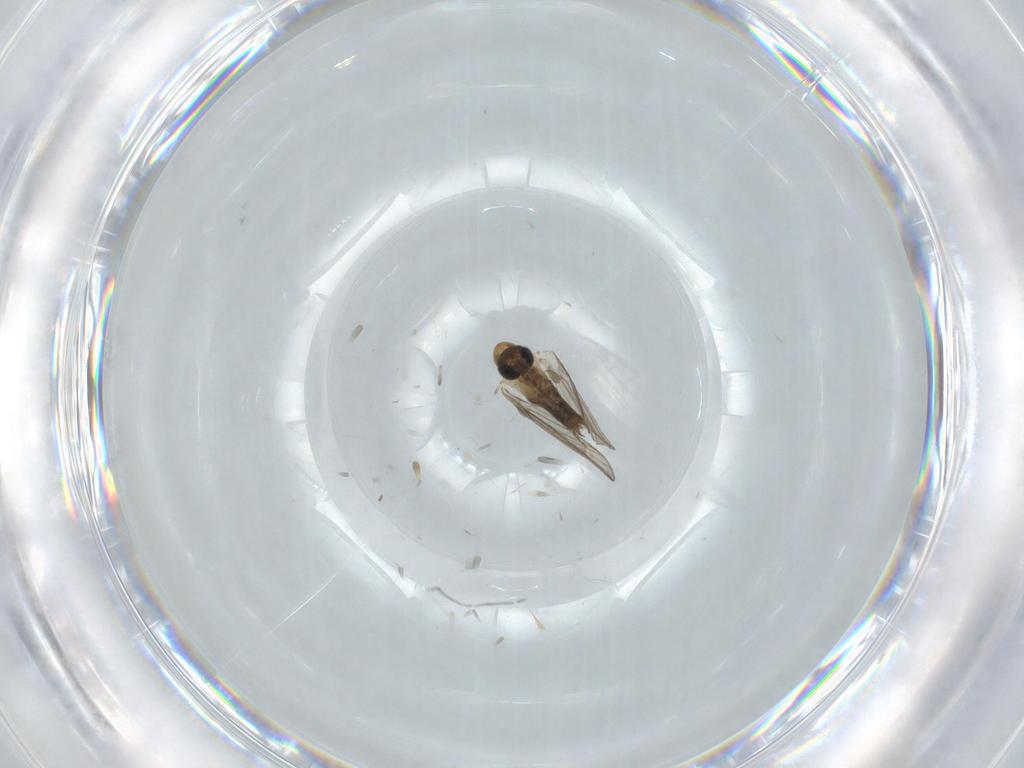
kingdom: Animalia
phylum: Arthropoda
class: Insecta
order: Diptera
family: Psychodidae
